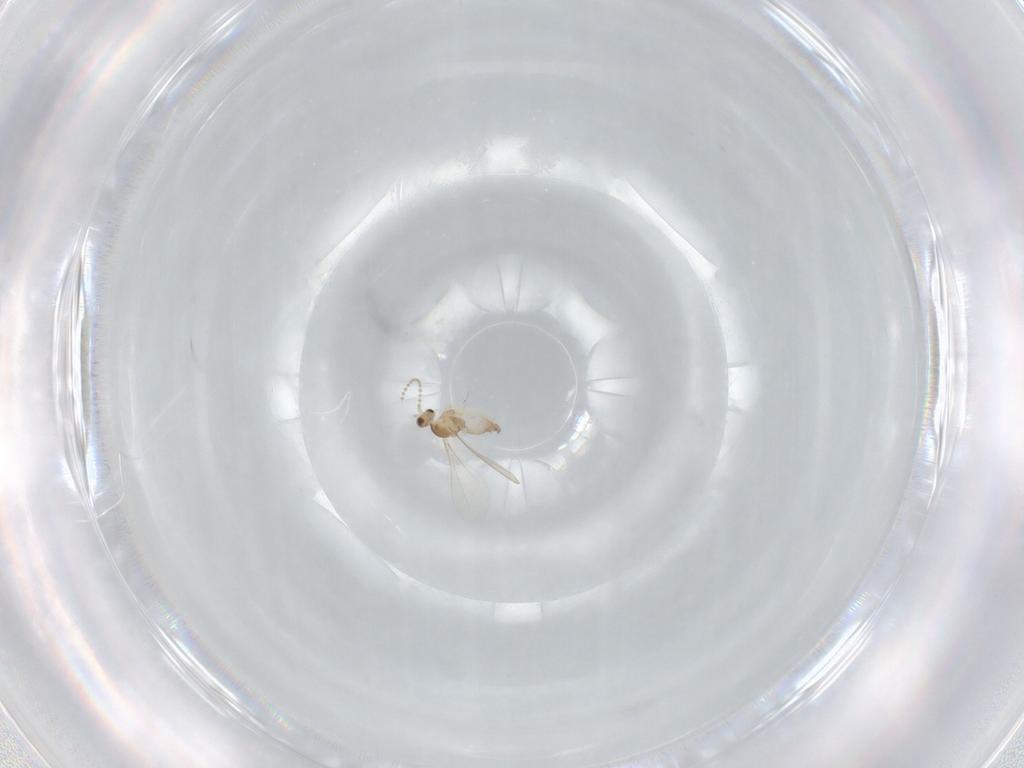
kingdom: Animalia
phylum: Arthropoda
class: Insecta
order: Diptera
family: Cecidomyiidae
